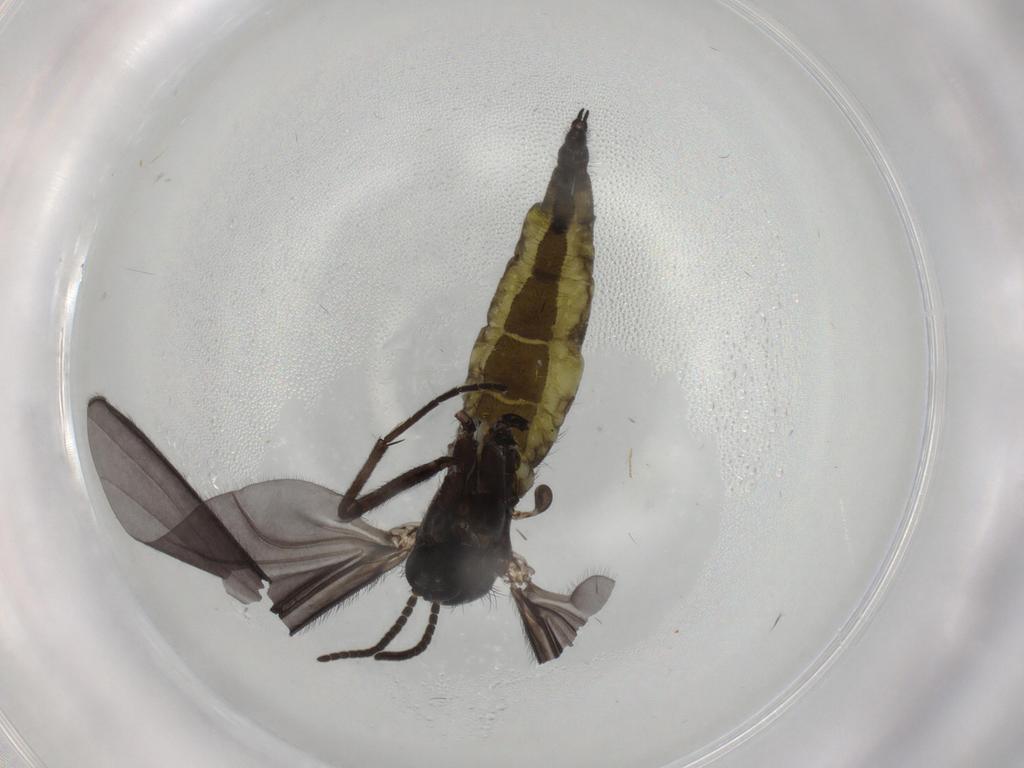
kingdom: Animalia
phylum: Arthropoda
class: Insecta
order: Diptera
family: Sciaridae
